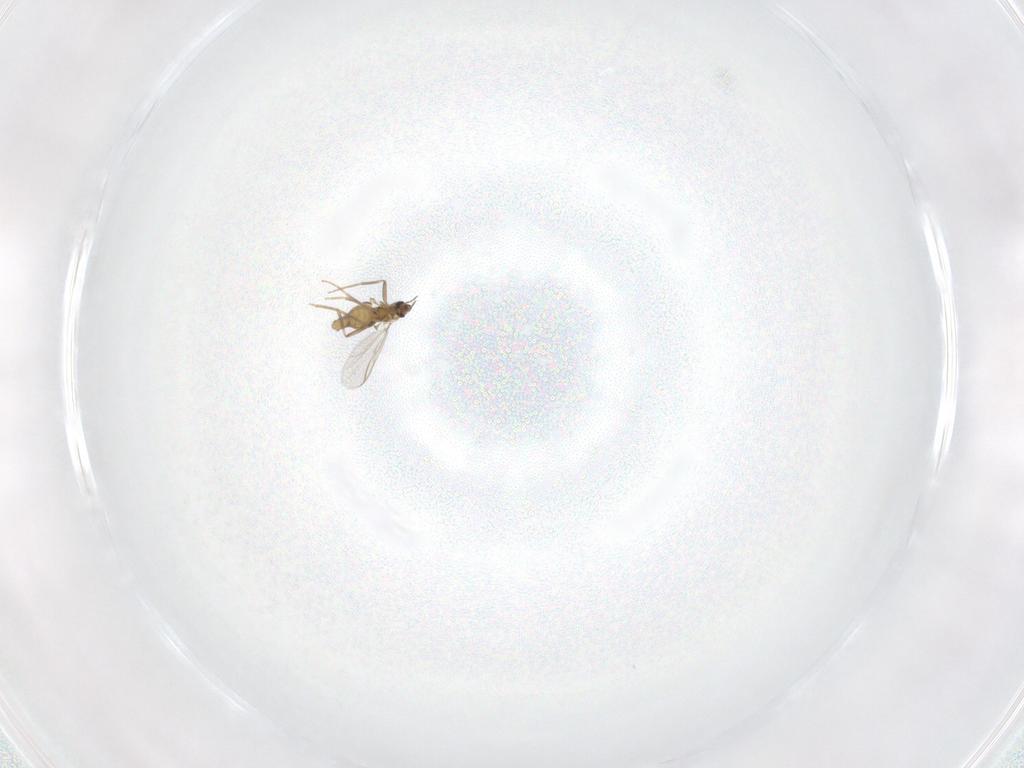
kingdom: Animalia
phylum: Arthropoda
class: Insecta
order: Diptera
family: Chironomidae
